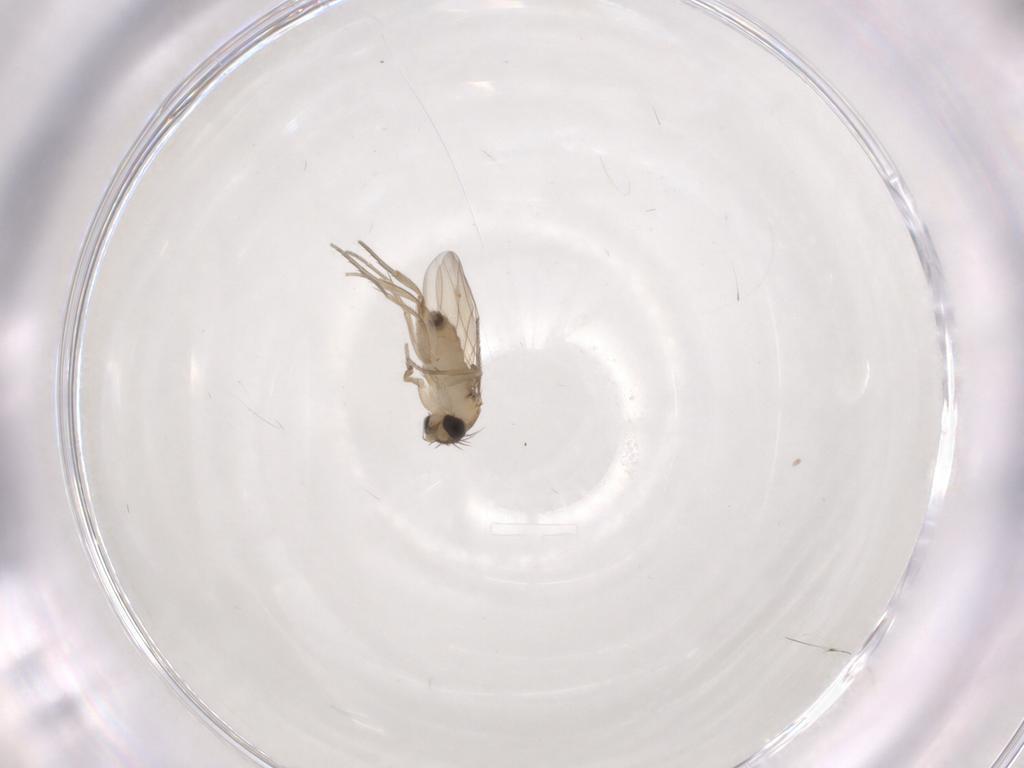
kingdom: Animalia
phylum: Arthropoda
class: Insecta
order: Diptera
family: Phoridae
